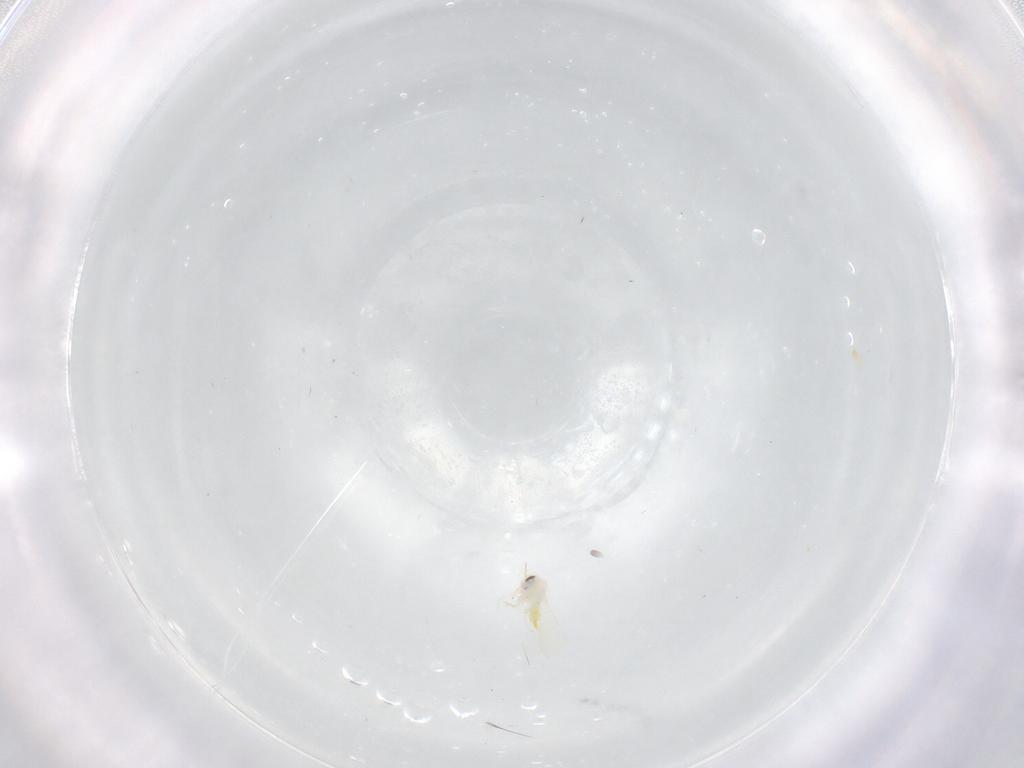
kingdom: Animalia
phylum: Arthropoda
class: Insecta
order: Hemiptera
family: Aleyrodidae
